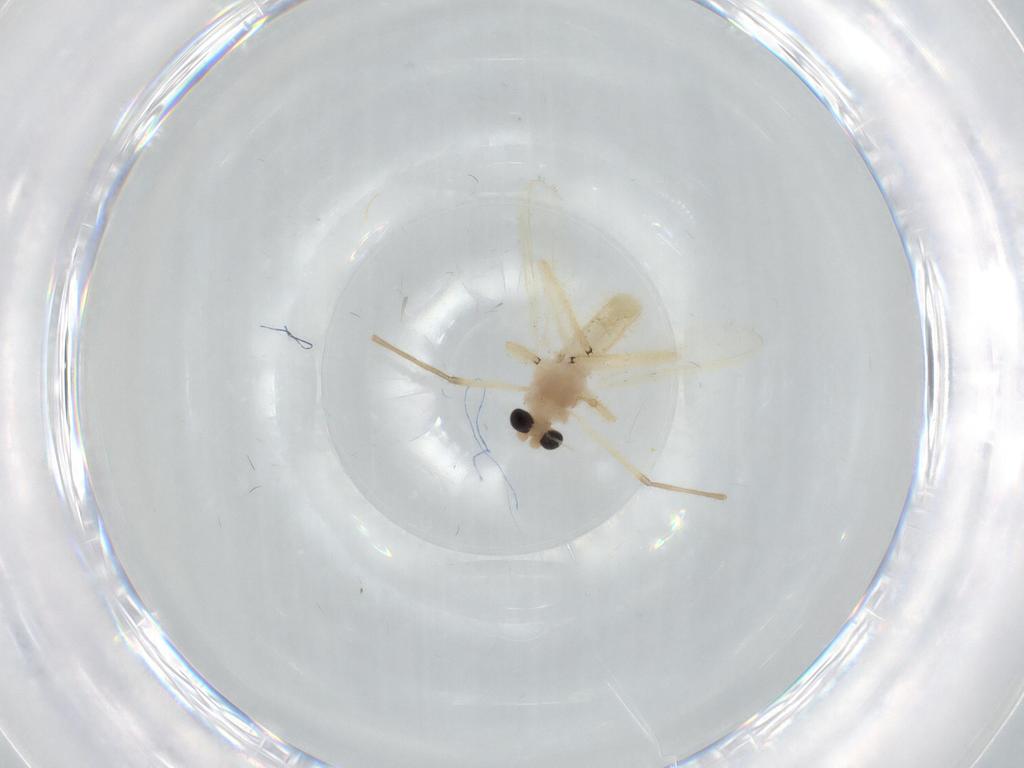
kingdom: Animalia
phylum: Arthropoda
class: Insecta
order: Diptera
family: Chironomidae
